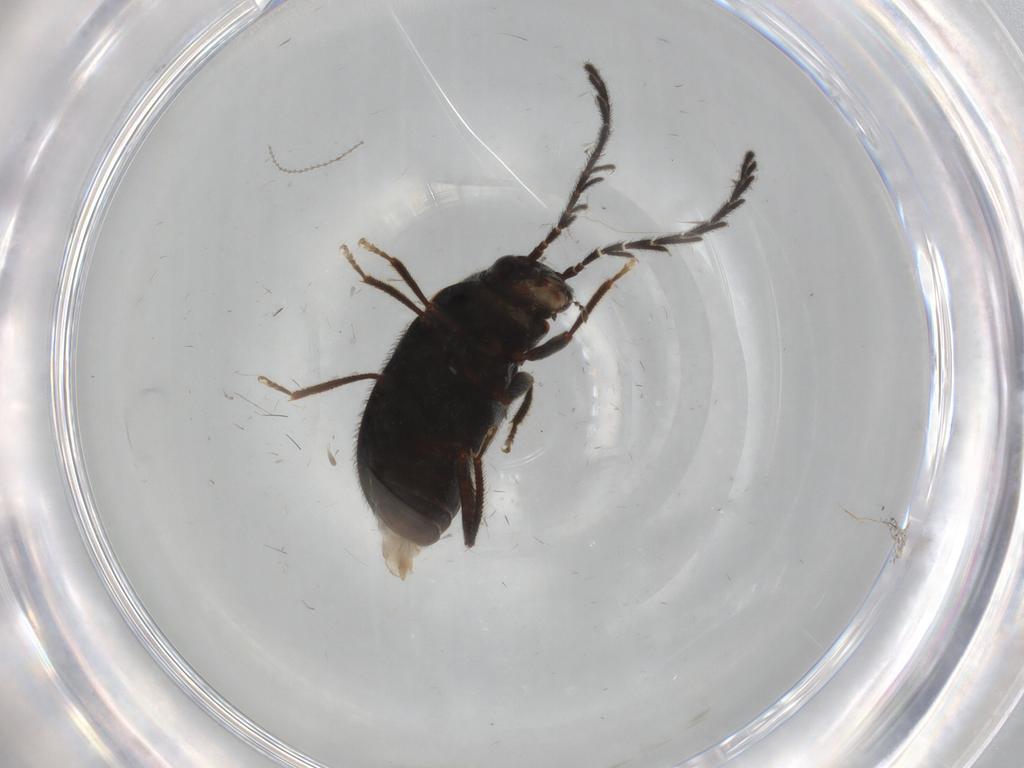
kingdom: Animalia
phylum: Arthropoda
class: Insecta
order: Coleoptera
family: Ptilodactylidae
